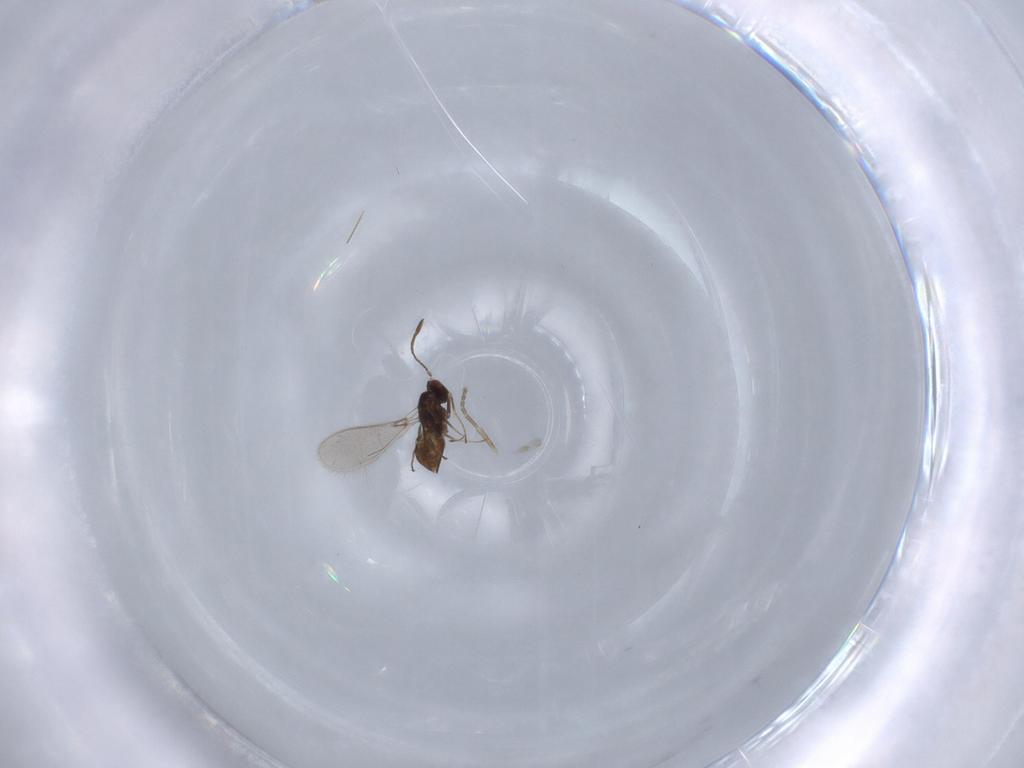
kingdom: Animalia
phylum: Arthropoda
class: Insecta
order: Hymenoptera
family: Mymaridae
